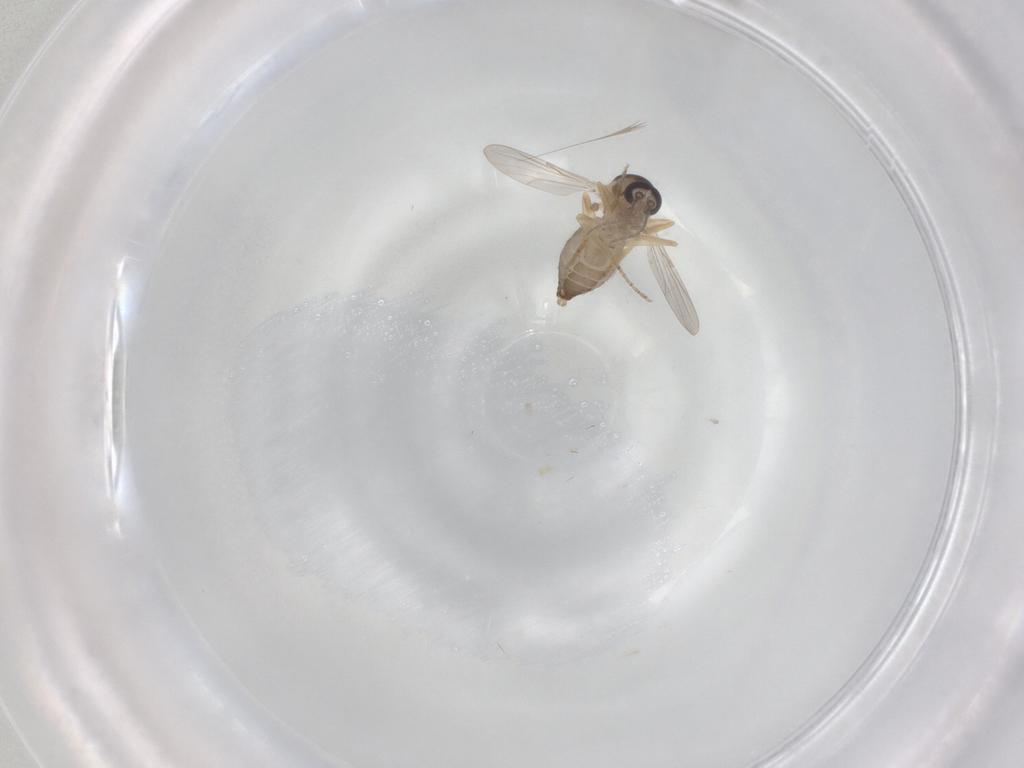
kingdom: Animalia
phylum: Arthropoda
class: Insecta
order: Diptera
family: Ceratopogonidae
